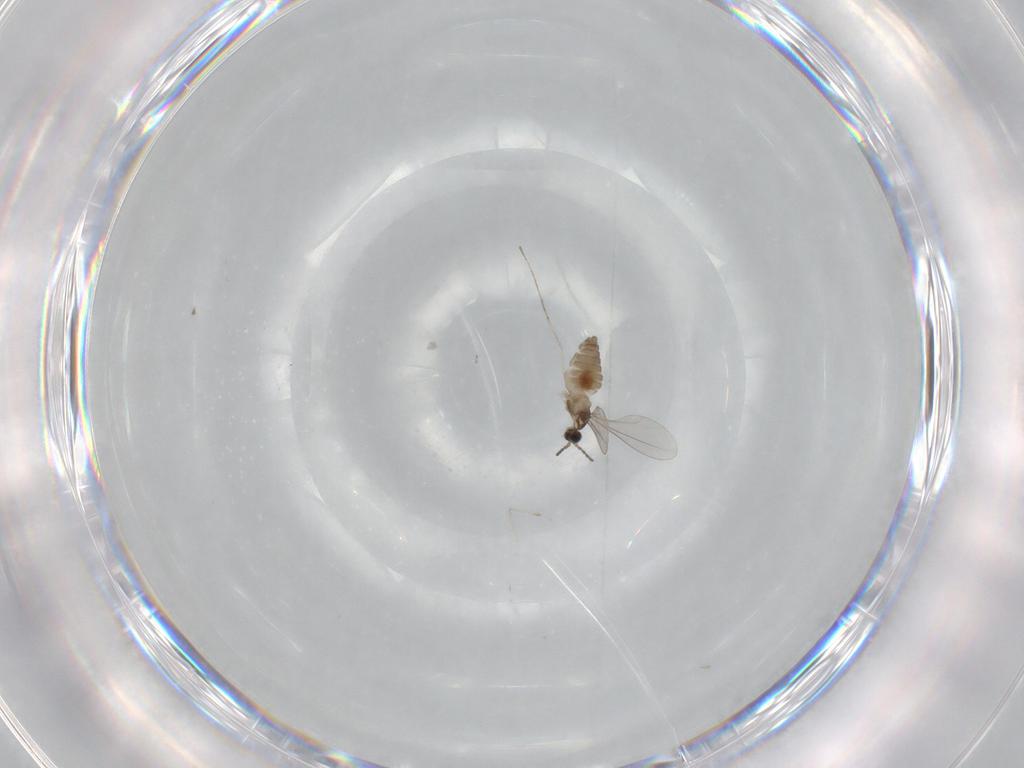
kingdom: Animalia
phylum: Arthropoda
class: Insecta
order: Diptera
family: Cecidomyiidae
